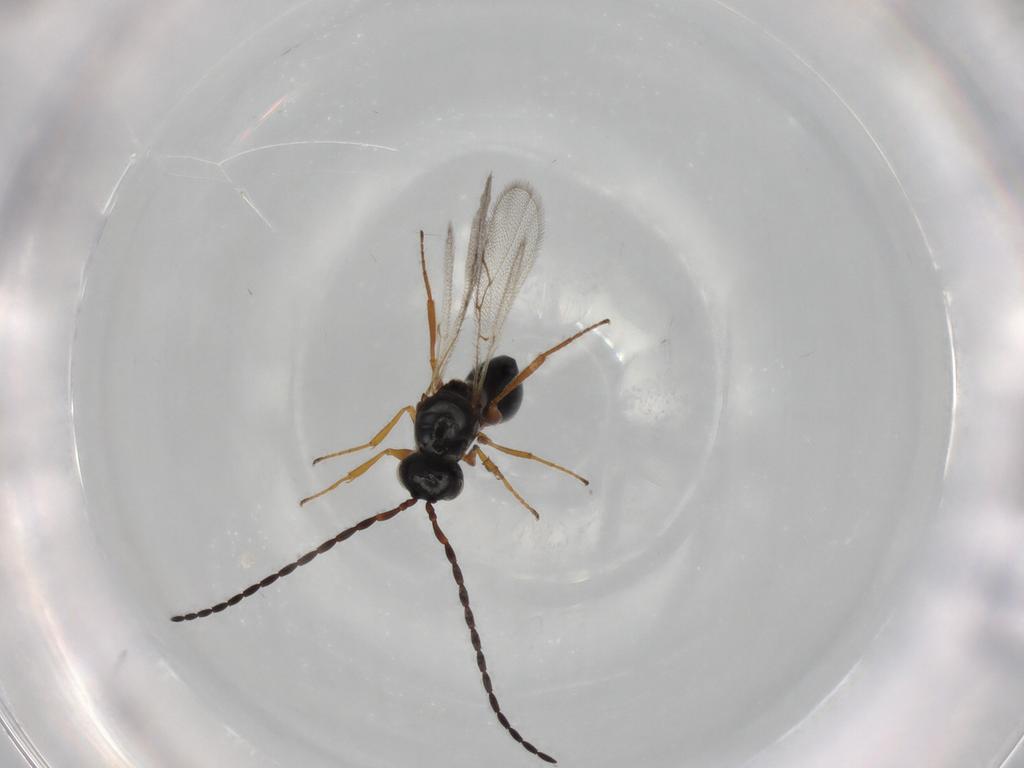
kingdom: Animalia
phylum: Arthropoda
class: Insecta
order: Hymenoptera
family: Figitidae
